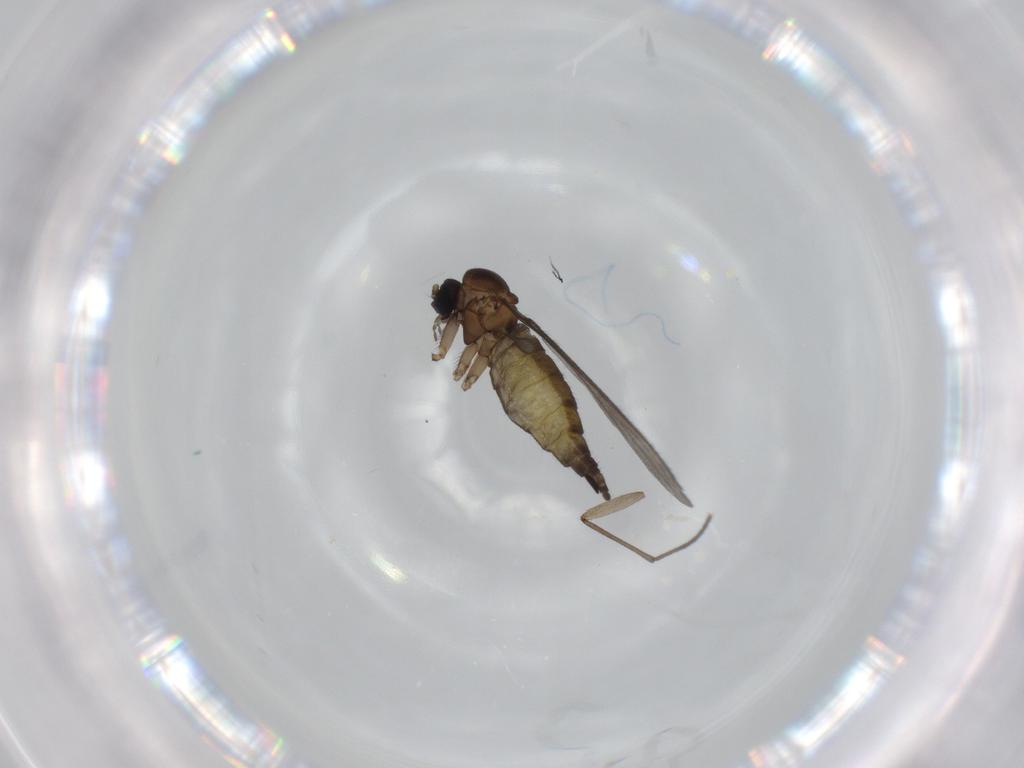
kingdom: Animalia
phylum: Arthropoda
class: Insecta
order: Diptera
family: Sciaridae
